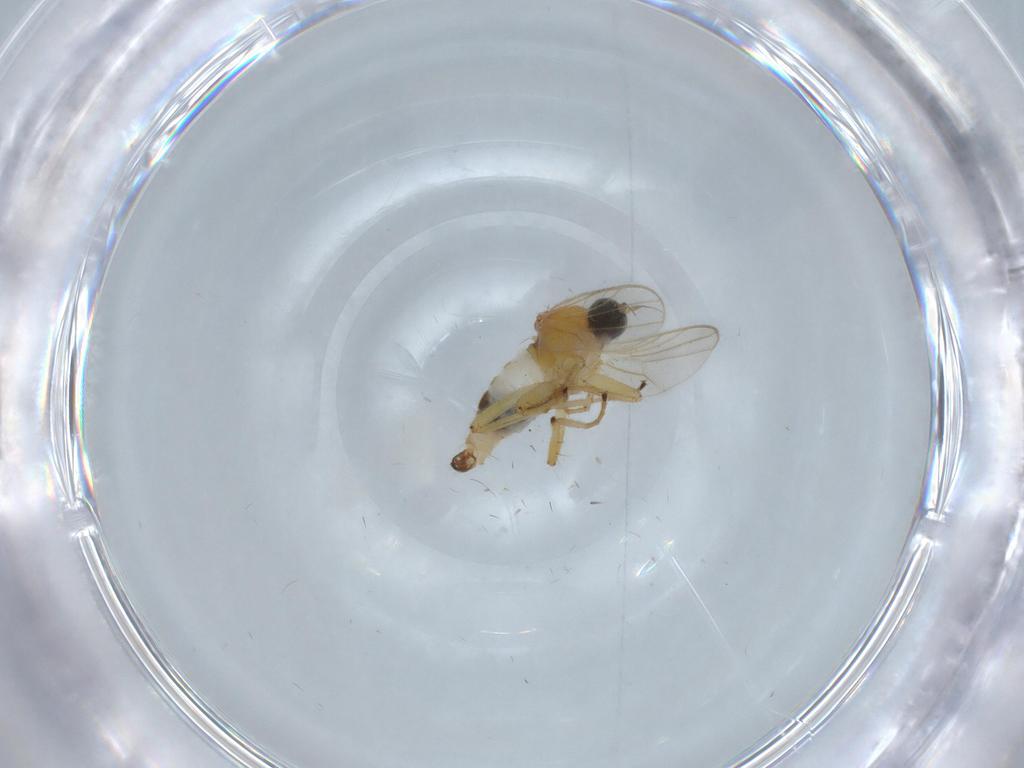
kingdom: Animalia
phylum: Arthropoda
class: Insecta
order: Diptera
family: Hybotidae
